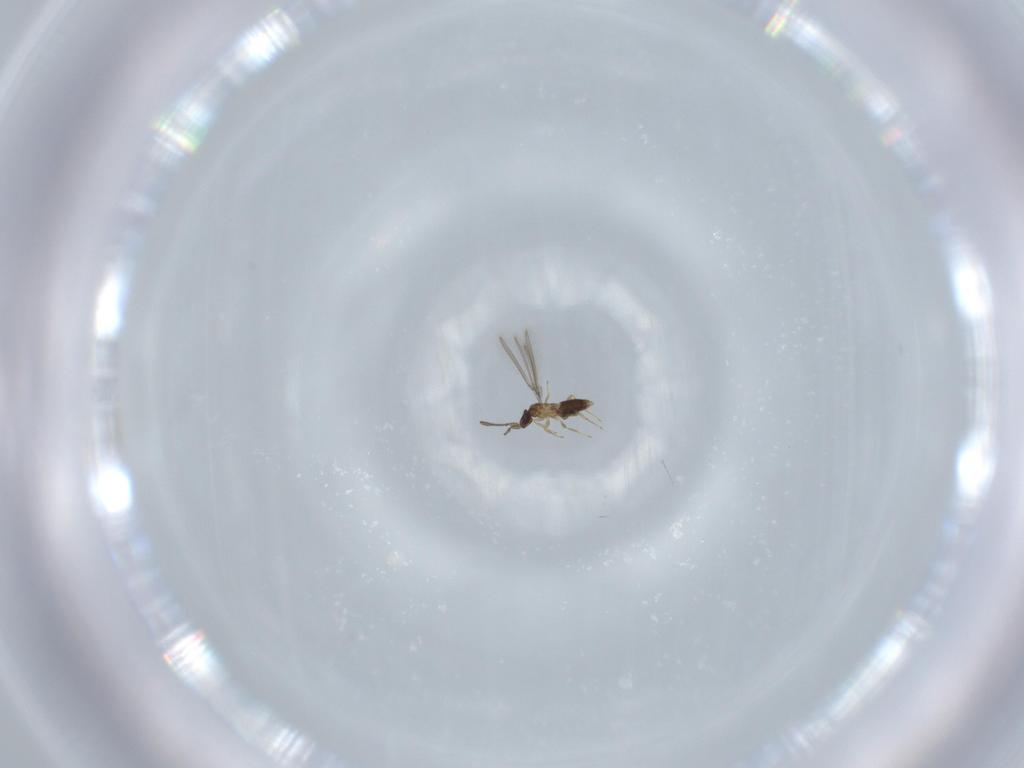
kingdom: Animalia
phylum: Arthropoda
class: Insecta
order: Hymenoptera
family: Mymaridae
